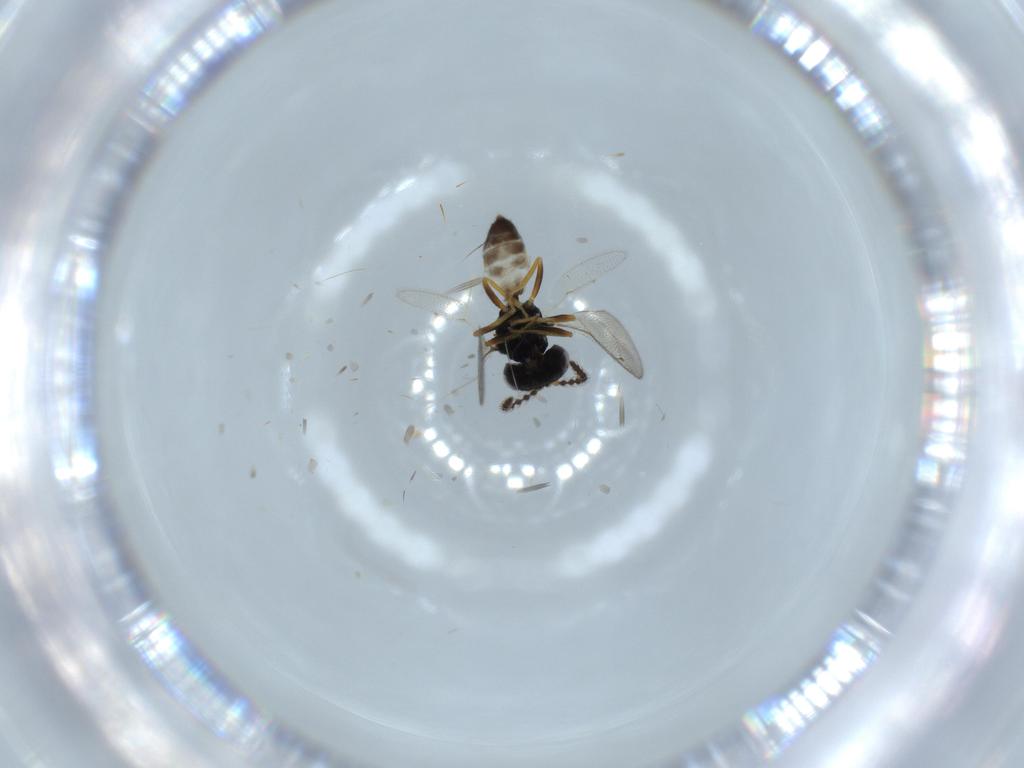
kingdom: Animalia
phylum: Arthropoda
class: Insecta
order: Hymenoptera
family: Pteromalidae
